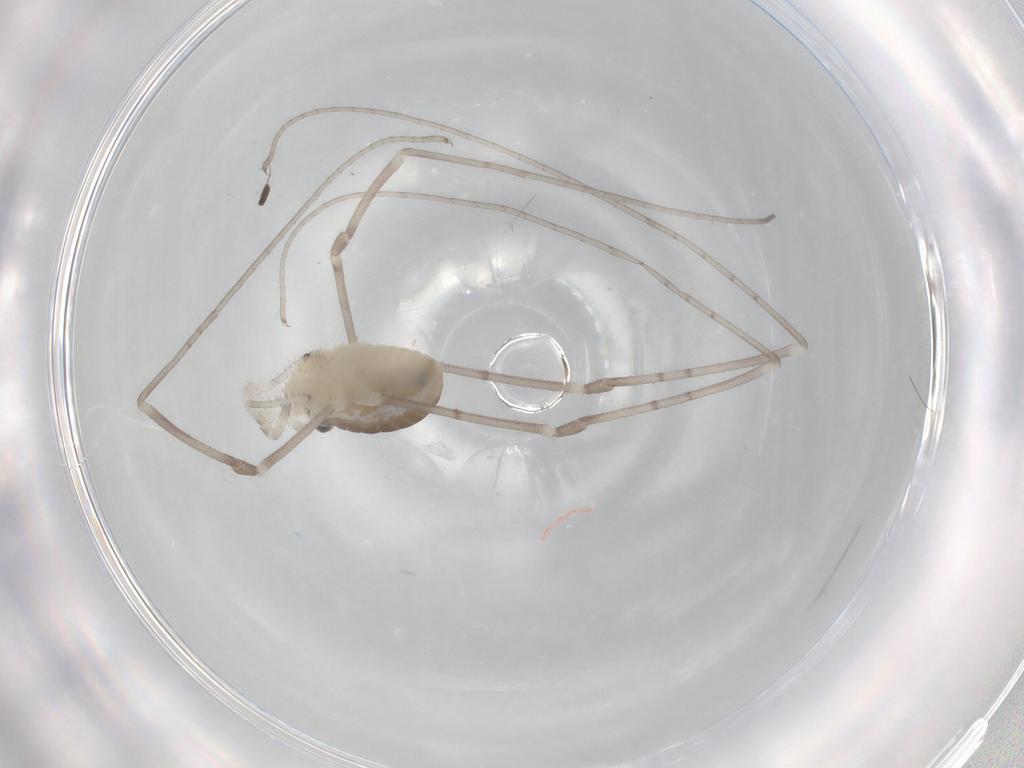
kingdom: Animalia
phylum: Arthropoda
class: Arachnida
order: Opiliones
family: Sclerosomatidae
